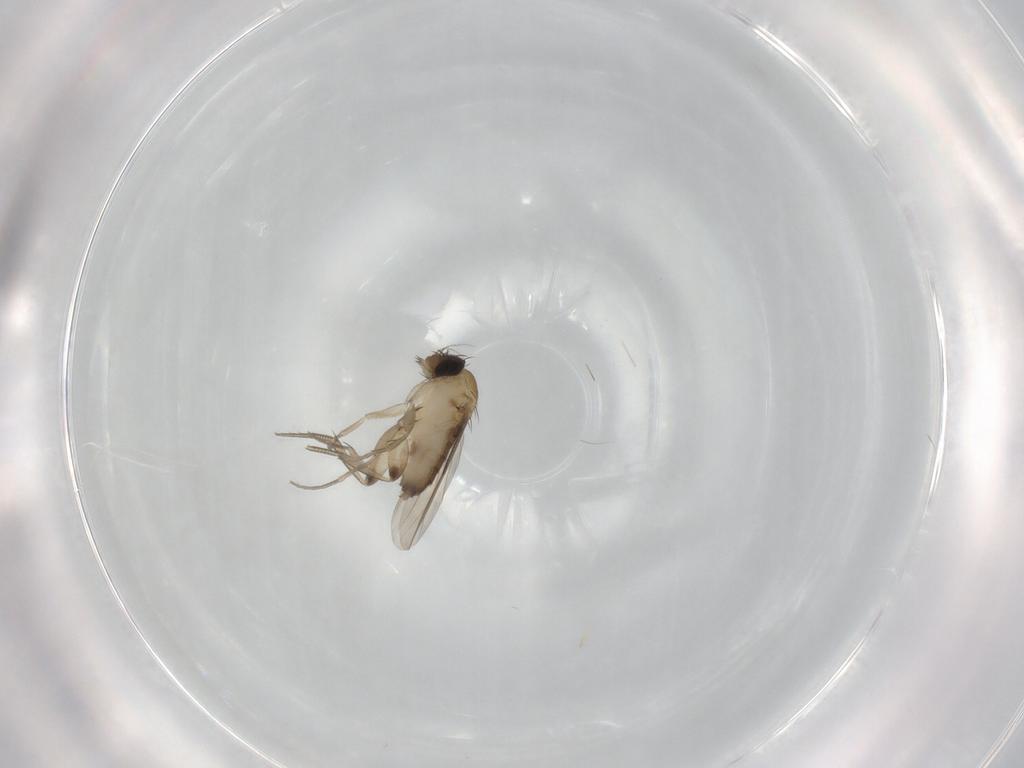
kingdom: Animalia
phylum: Arthropoda
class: Insecta
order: Diptera
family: Phoridae
